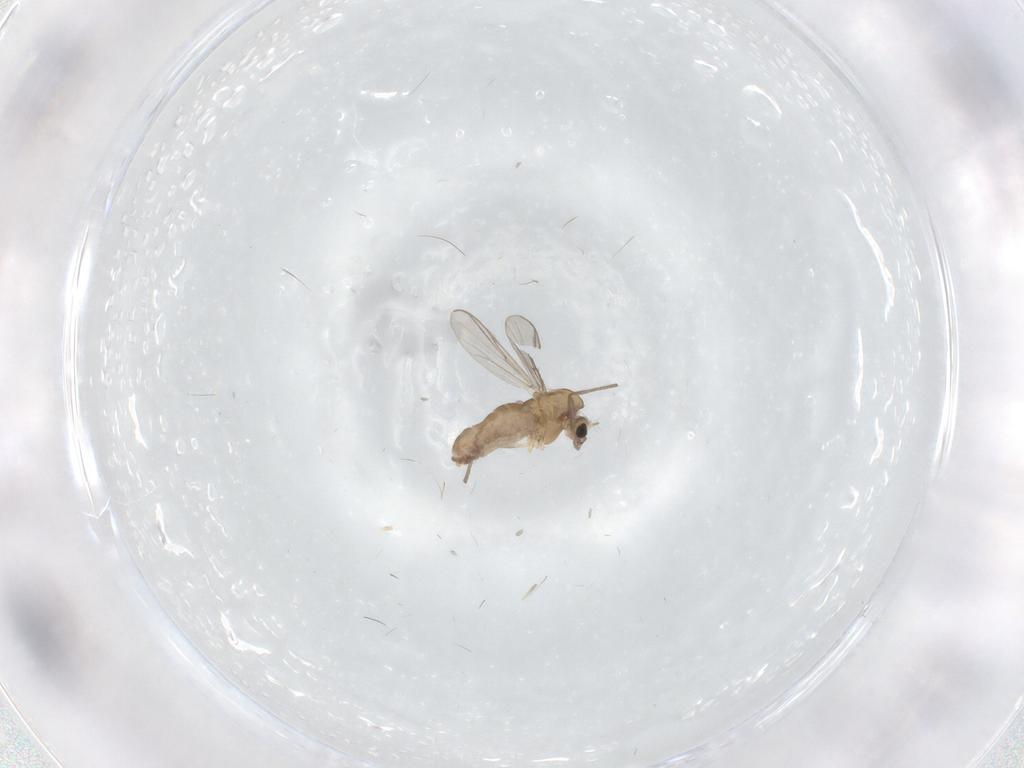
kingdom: Animalia
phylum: Arthropoda
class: Insecta
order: Diptera
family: Chironomidae
